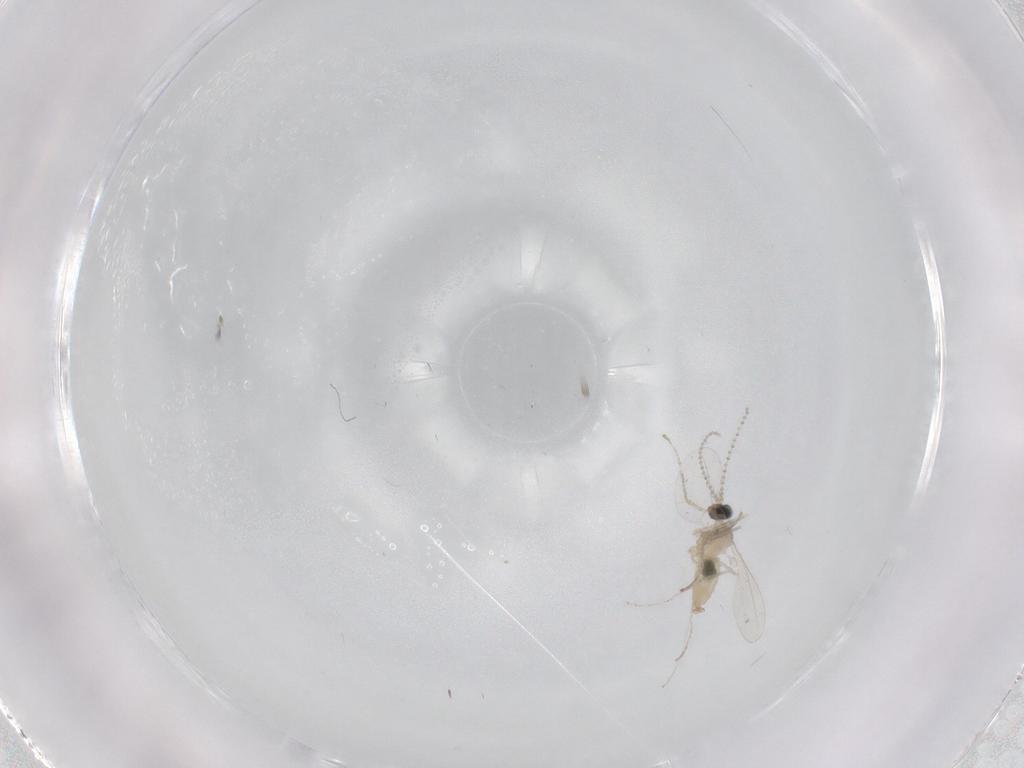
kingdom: Animalia
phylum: Arthropoda
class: Insecta
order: Diptera
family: Cecidomyiidae
